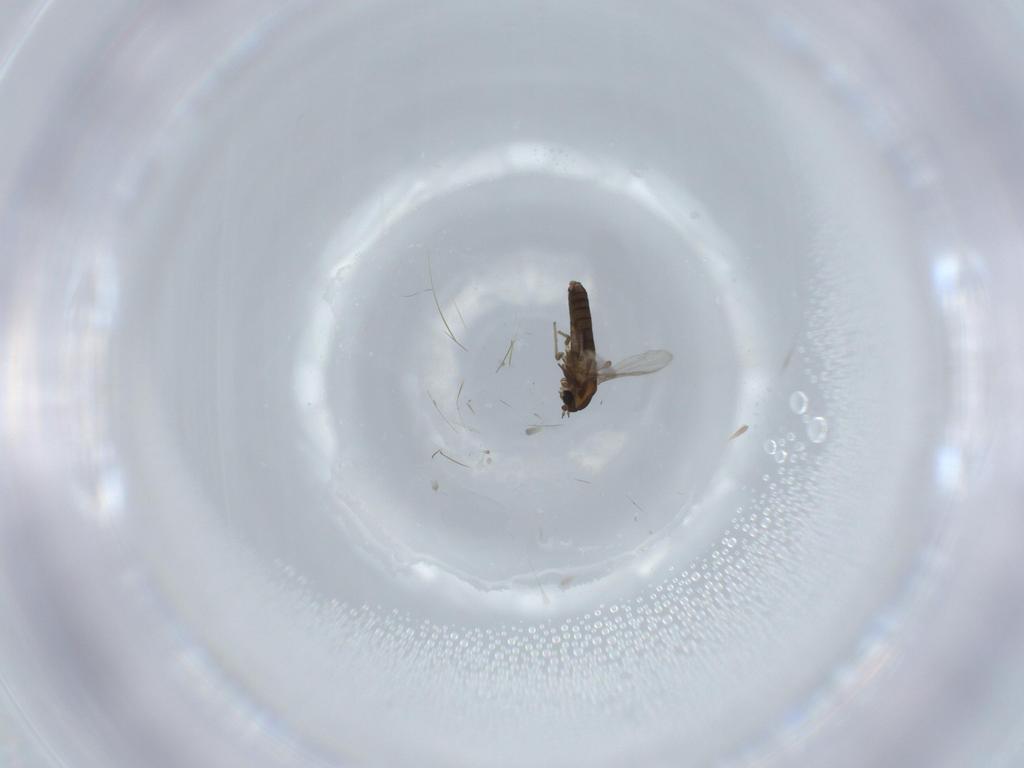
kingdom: Animalia
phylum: Arthropoda
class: Insecta
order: Diptera
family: Chironomidae
